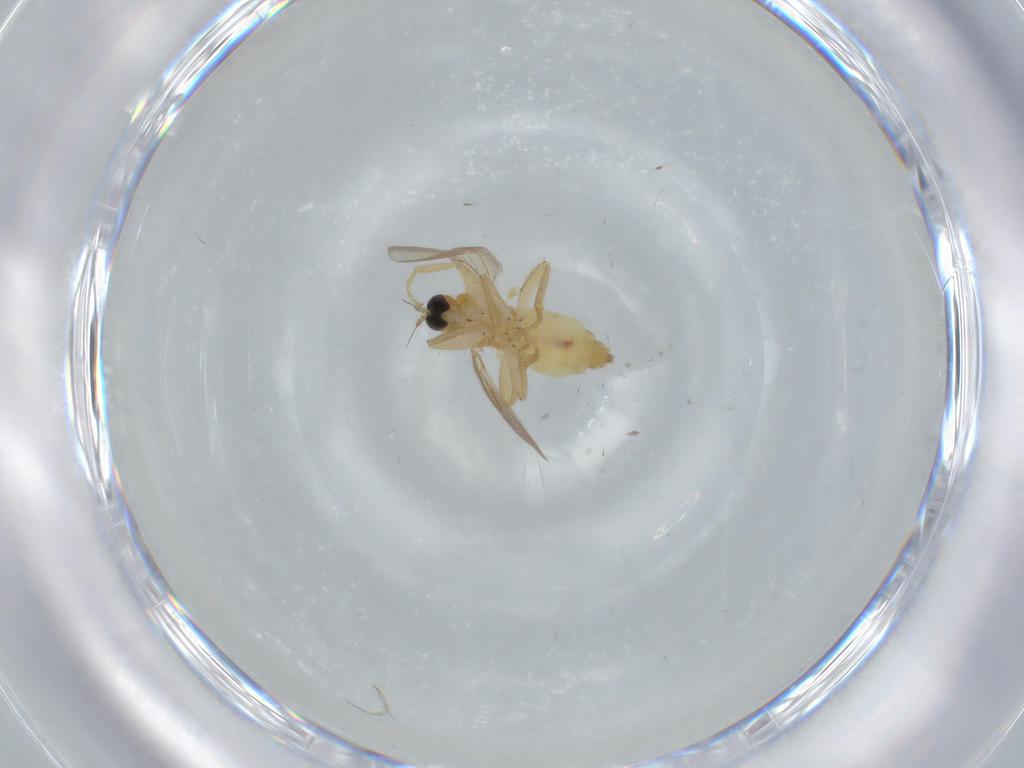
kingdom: Animalia
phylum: Arthropoda
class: Insecta
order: Diptera
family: Hybotidae
